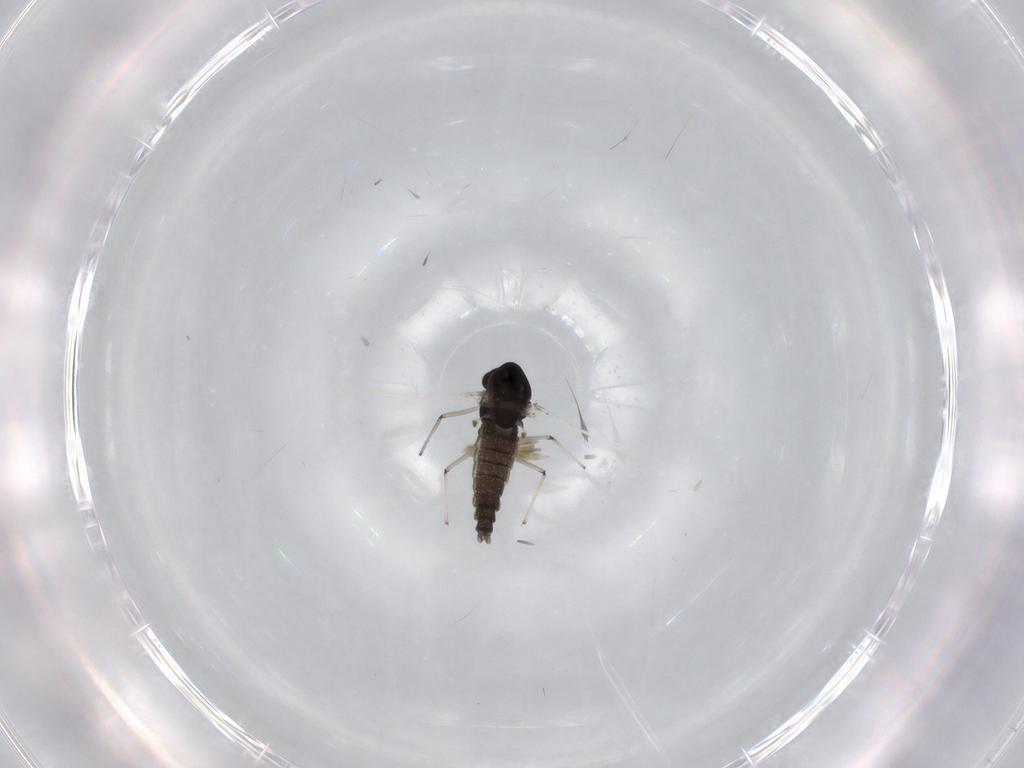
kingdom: Animalia
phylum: Arthropoda
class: Insecta
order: Diptera
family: Chironomidae
